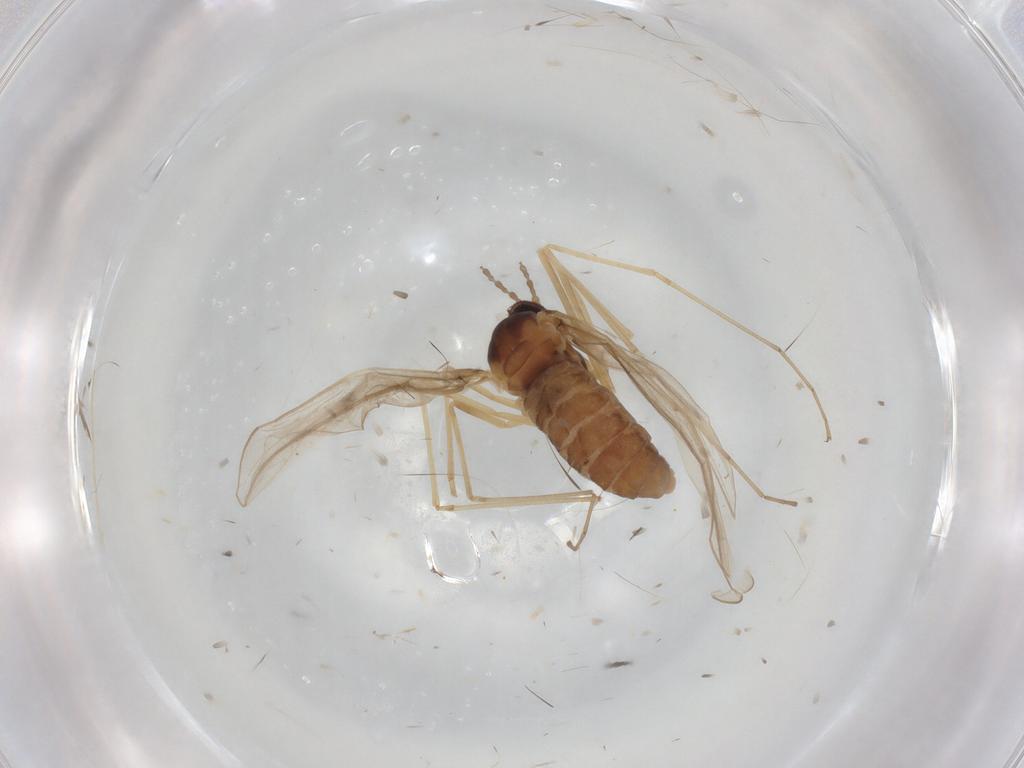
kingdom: Animalia
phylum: Arthropoda
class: Insecta
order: Diptera
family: Cecidomyiidae
